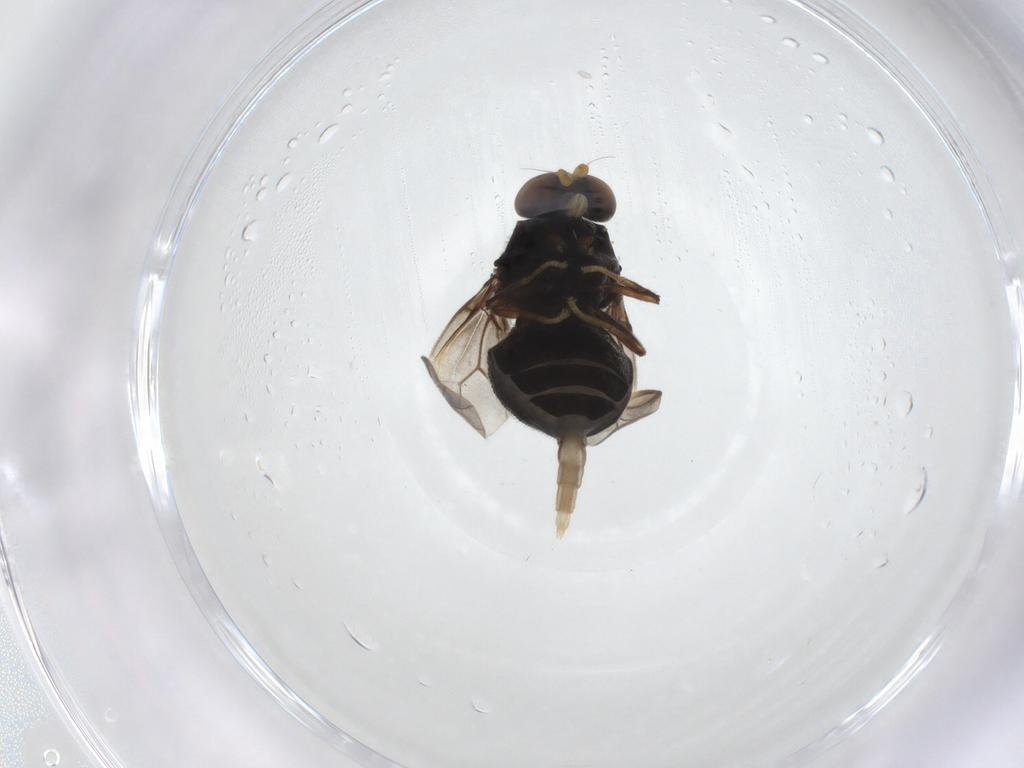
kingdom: Animalia
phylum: Arthropoda
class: Insecta
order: Diptera
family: Stratiomyidae
